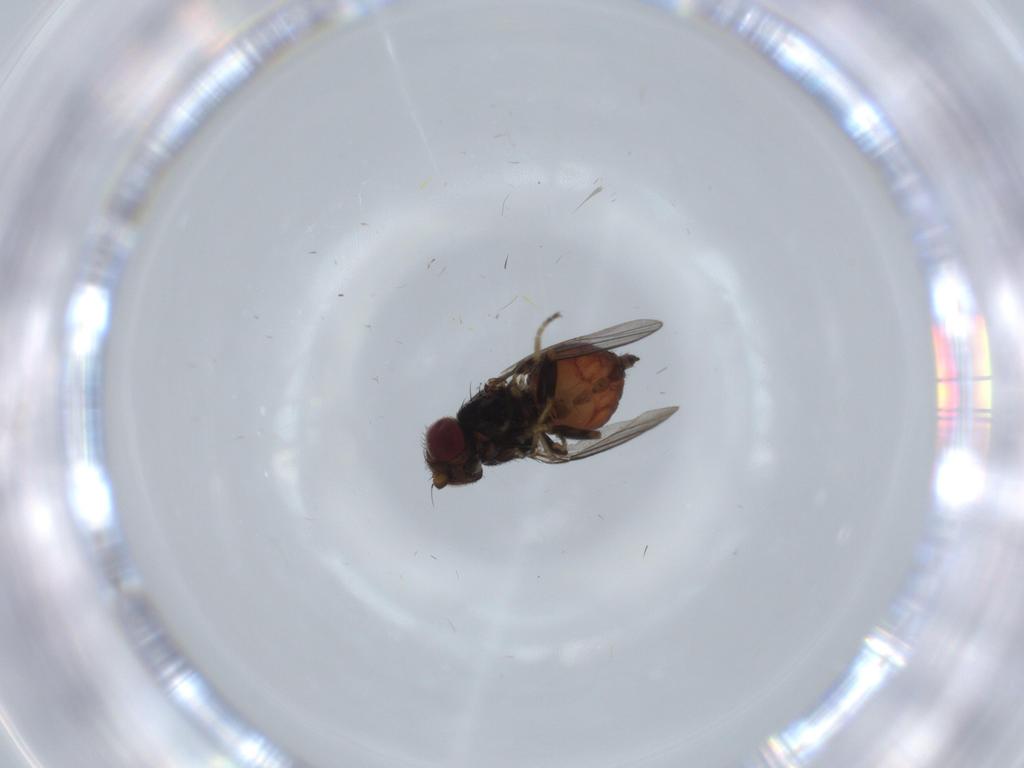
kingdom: Animalia
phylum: Arthropoda
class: Insecta
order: Diptera
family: Chloropidae
